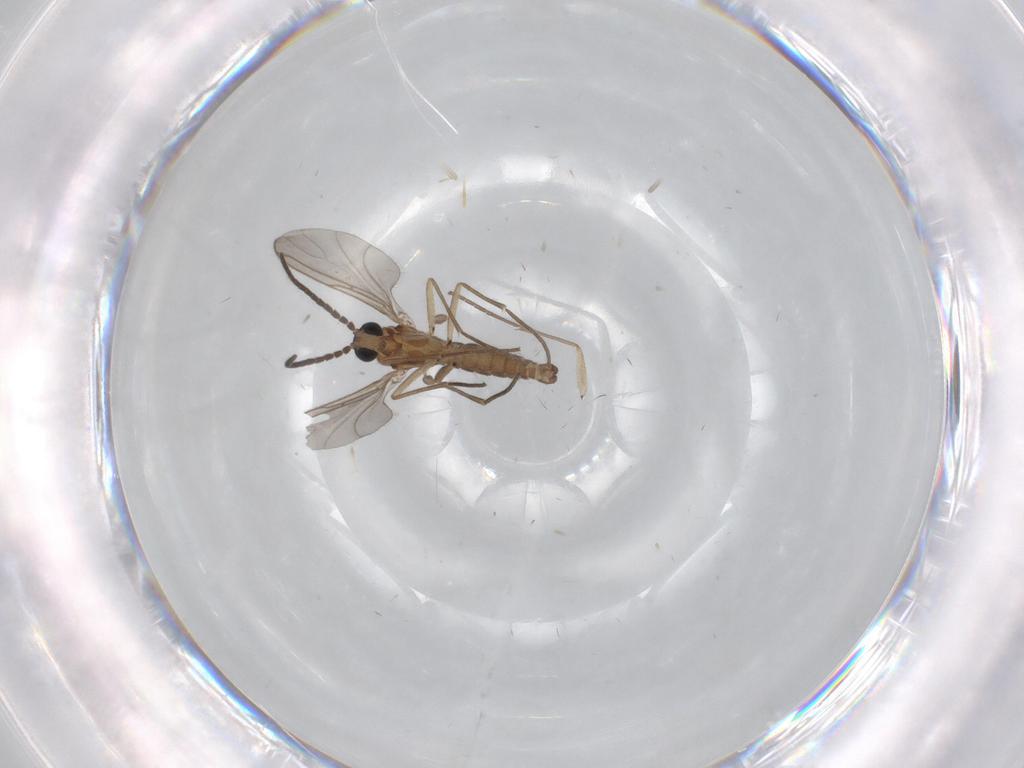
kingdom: Animalia
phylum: Arthropoda
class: Insecta
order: Diptera
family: Sciaridae
